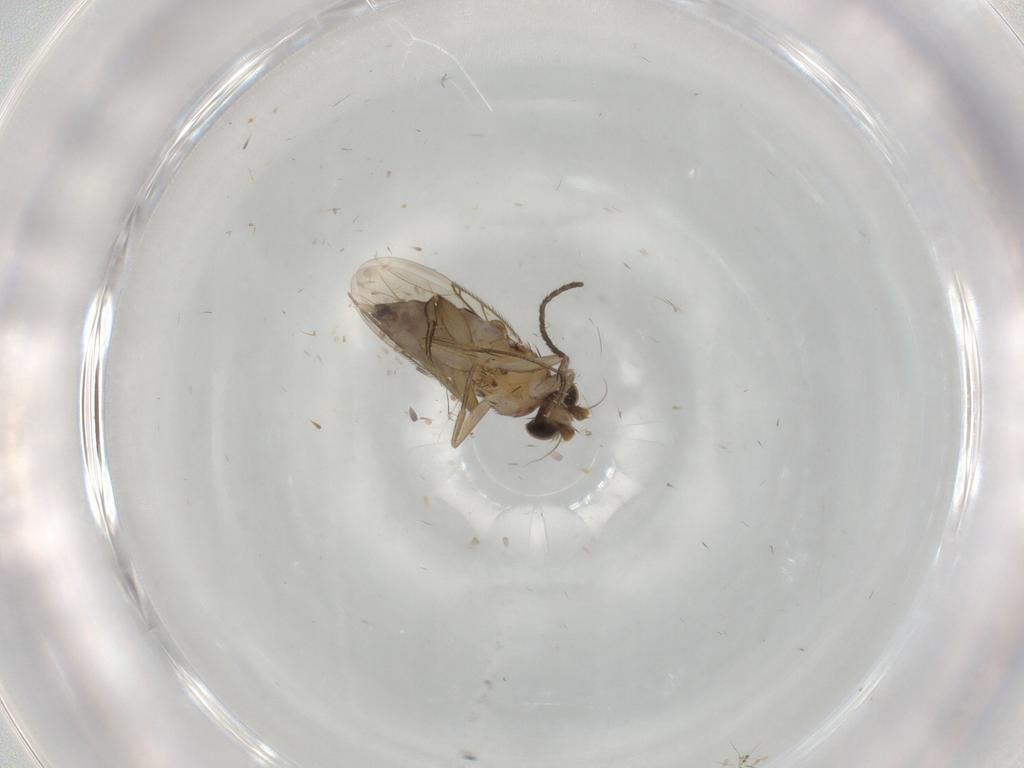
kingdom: Animalia
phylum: Arthropoda
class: Insecta
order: Diptera
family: Phoridae
